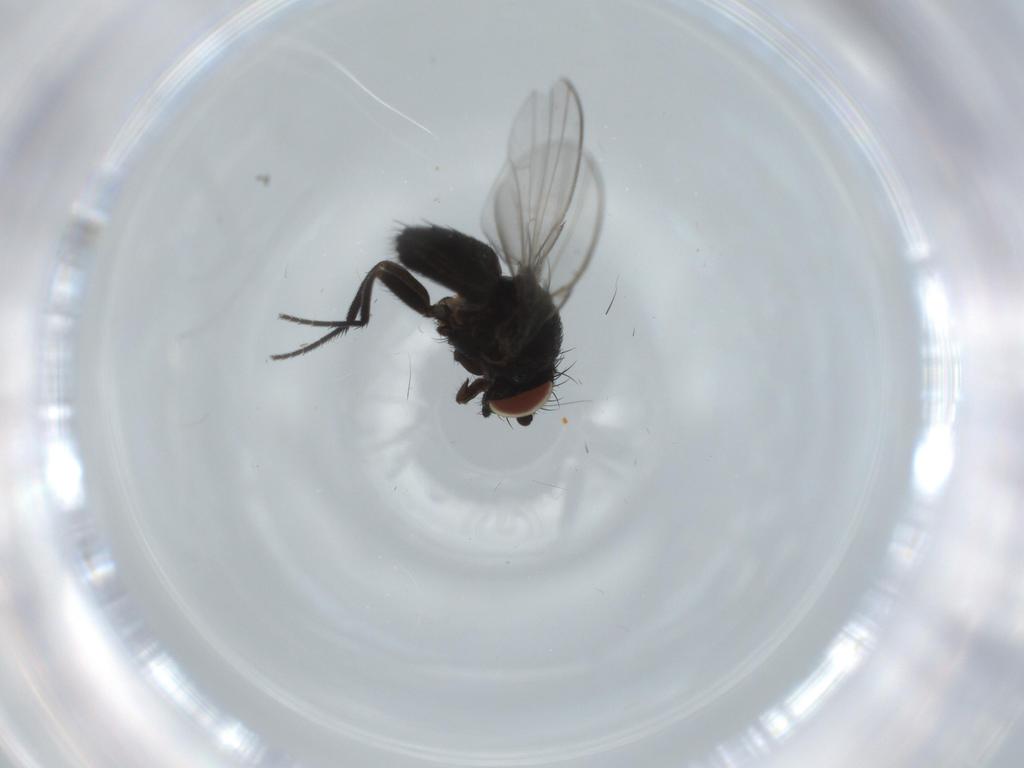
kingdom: Animalia
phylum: Arthropoda
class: Insecta
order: Diptera
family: Milichiidae
